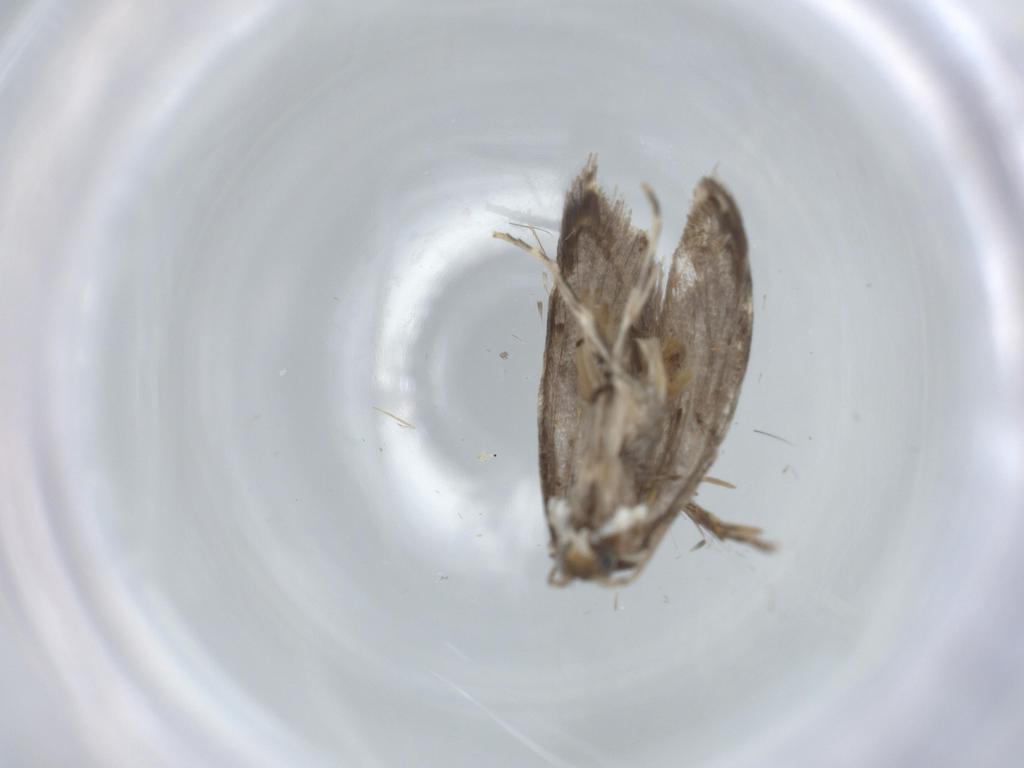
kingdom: Animalia
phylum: Arthropoda
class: Insecta
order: Lepidoptera
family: Tineidae
